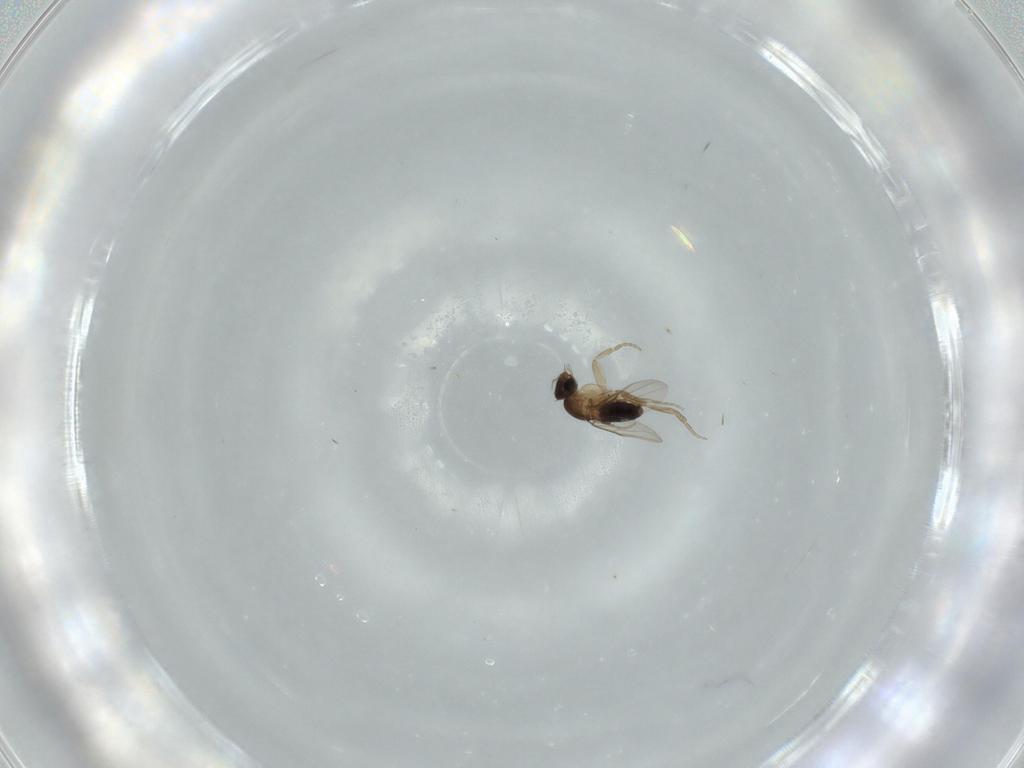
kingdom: Animalia
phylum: Arthropoda
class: Insecta
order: Diptera
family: Phoridae
